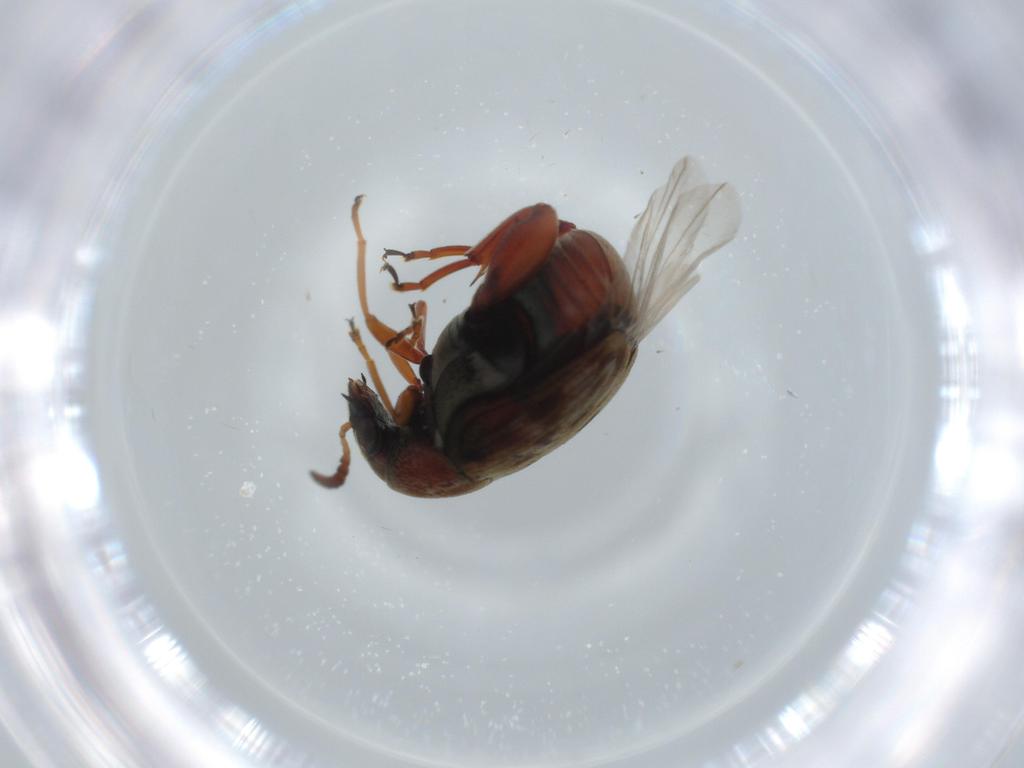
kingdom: Animalia
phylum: Arthropoda
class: Insecta
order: Coleoptera
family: Chrysomelidae
